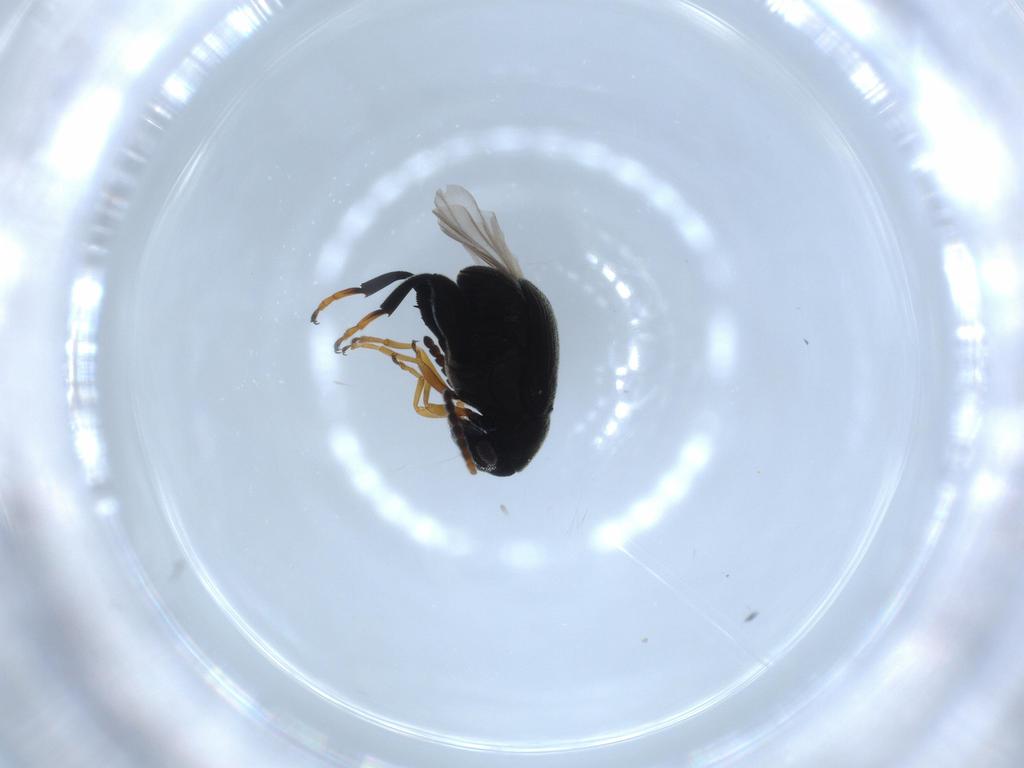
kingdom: Animalia
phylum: Arthropoda
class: Insecta
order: Coleoptera
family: Chrysomelidae
